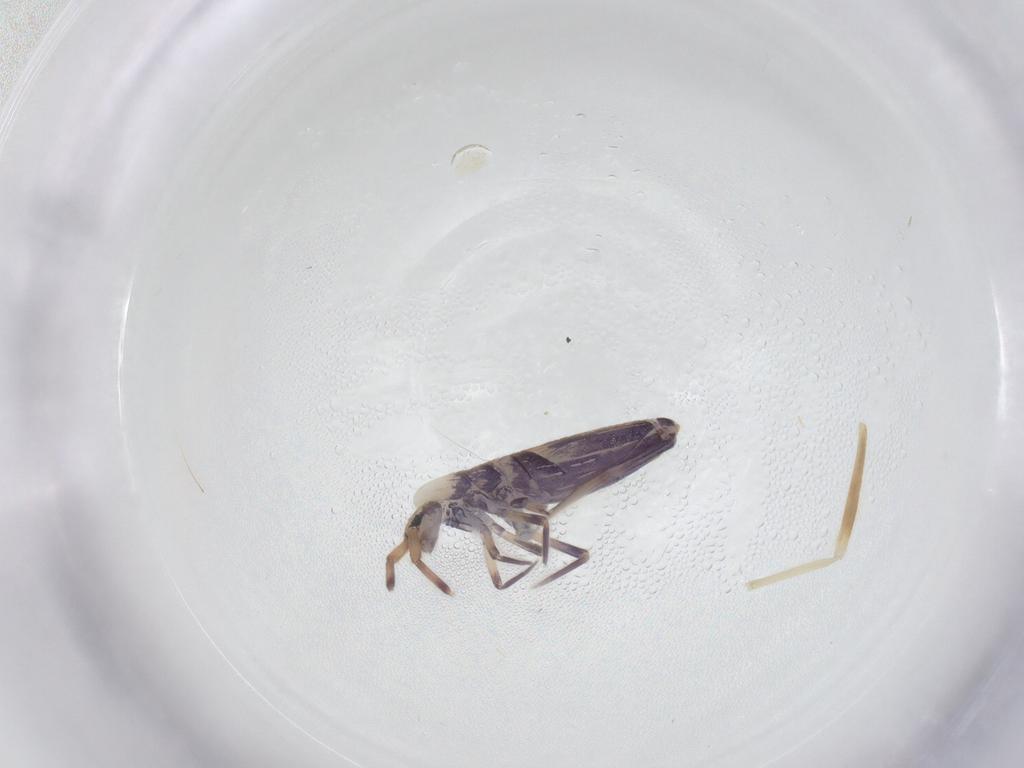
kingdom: Animalia
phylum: Arthropoda
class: Collembola
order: Entomobryomorpha
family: Entomobryidae
